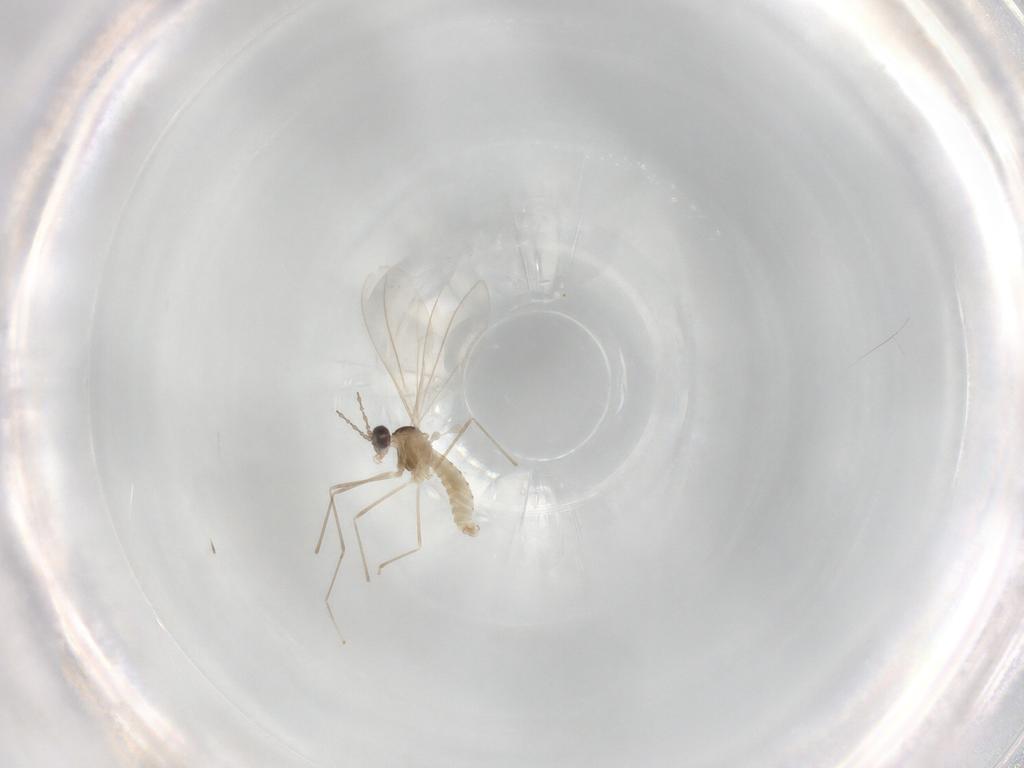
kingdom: Animalia
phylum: Arthropoda
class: Insecta
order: Diptera
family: Cecidomyiidae
